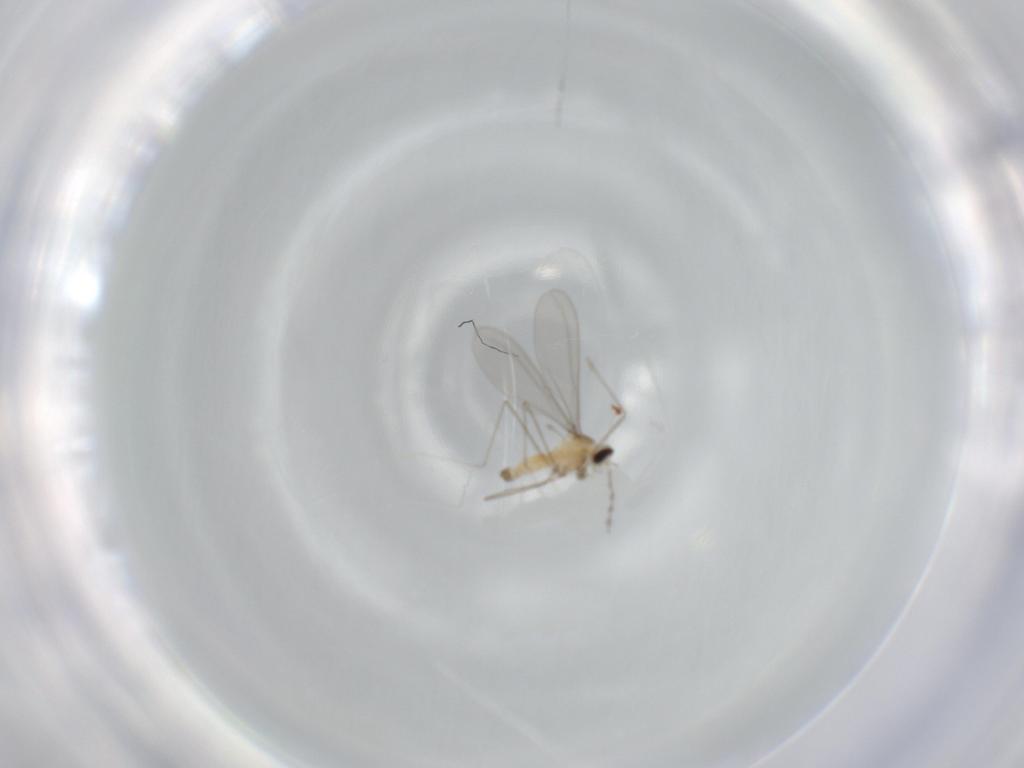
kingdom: Animalia
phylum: Arthropoda
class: Insecta
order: Diptera
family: Cecidomyiidae
